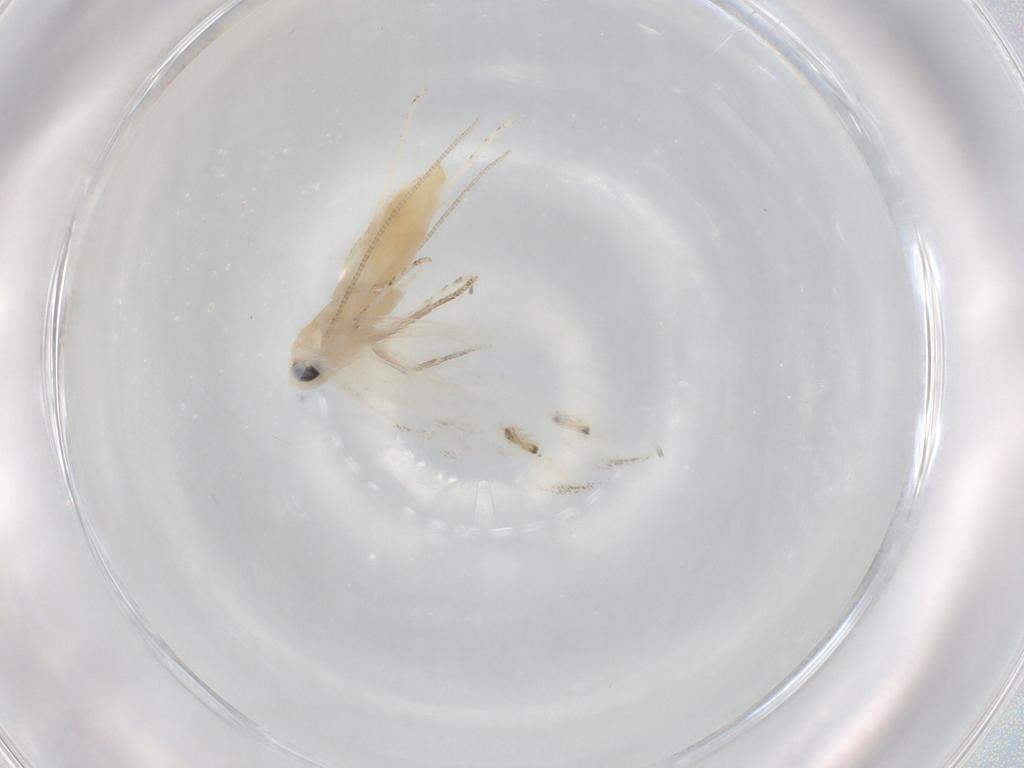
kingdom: Animalia
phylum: Arthropoda
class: Insecta
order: Lepidoptera
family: Lyonetiidae
